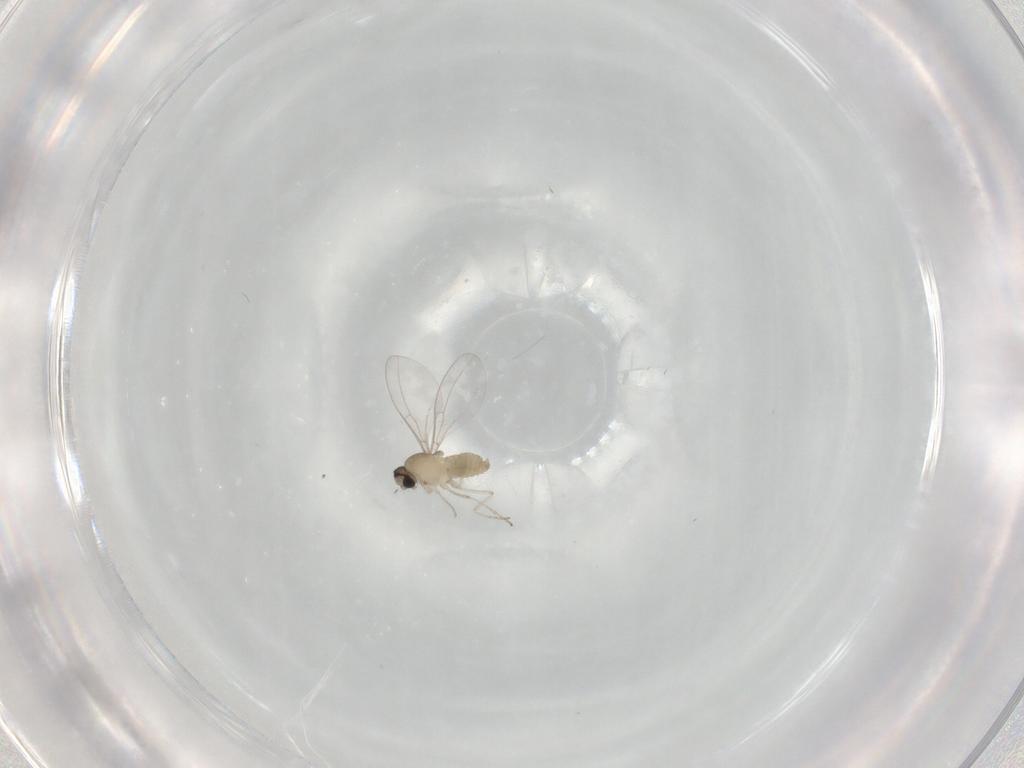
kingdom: Animalia
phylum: Arthropoda
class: Insecta
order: Diptera
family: Cecidomyiidae
